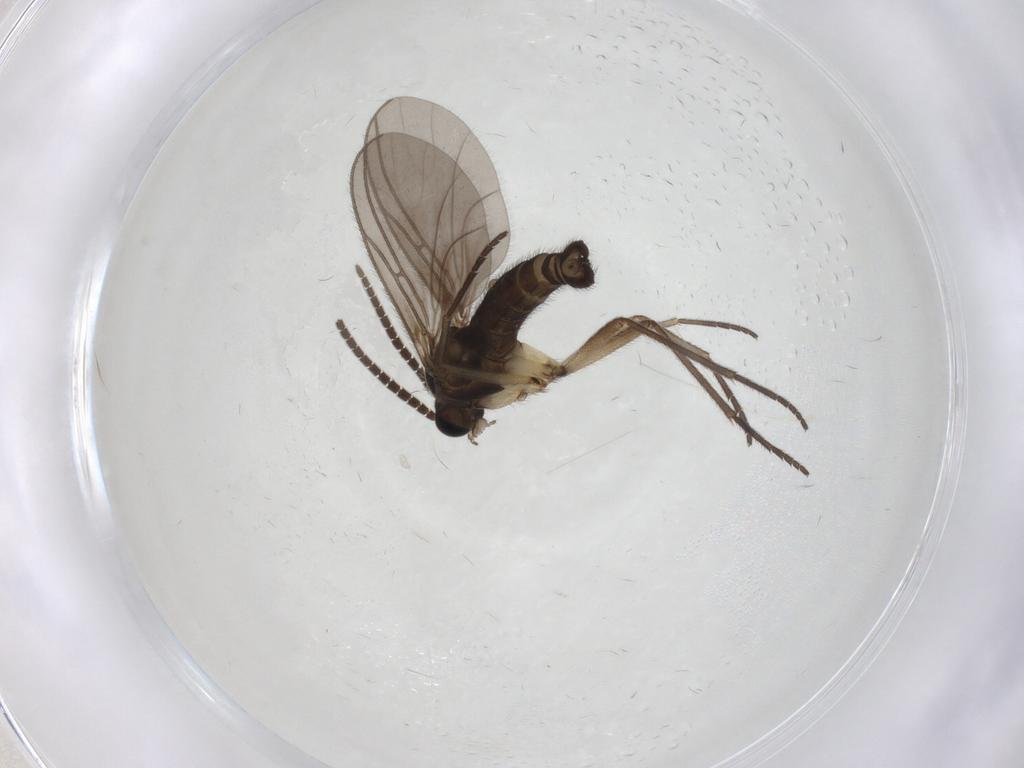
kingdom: Animalia
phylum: Arthropoda
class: Insecta
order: Diptera
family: Sciaridae
